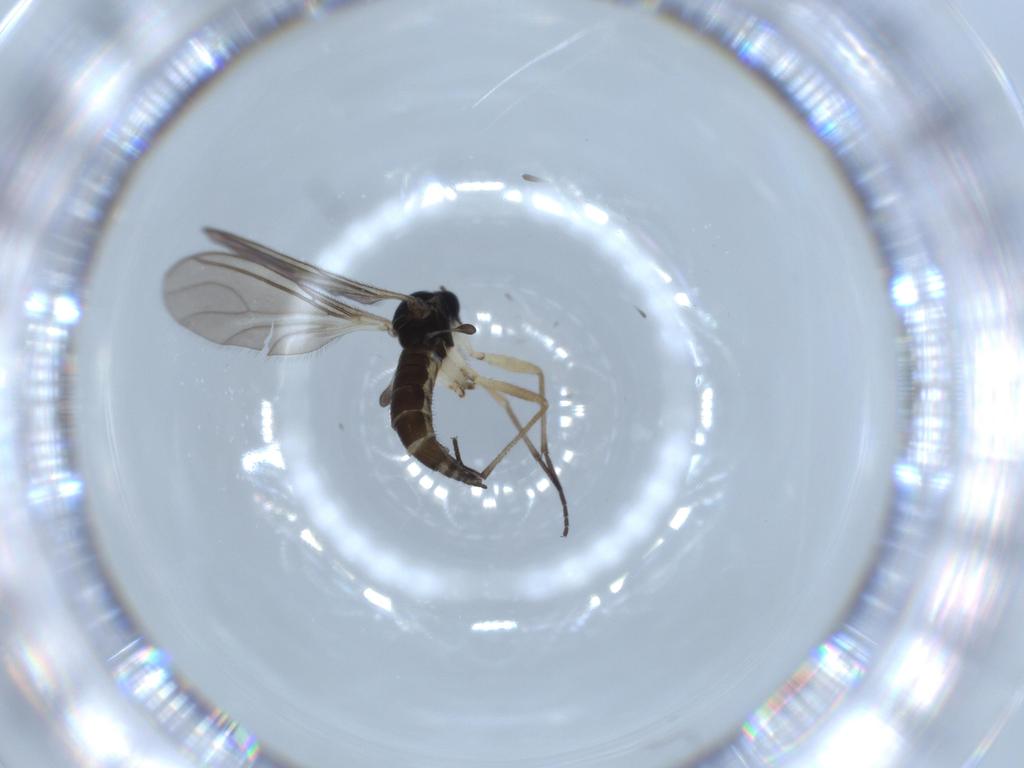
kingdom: Animalia
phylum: Arthropoda
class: Insecta
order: Diptera
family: Sciaridae
